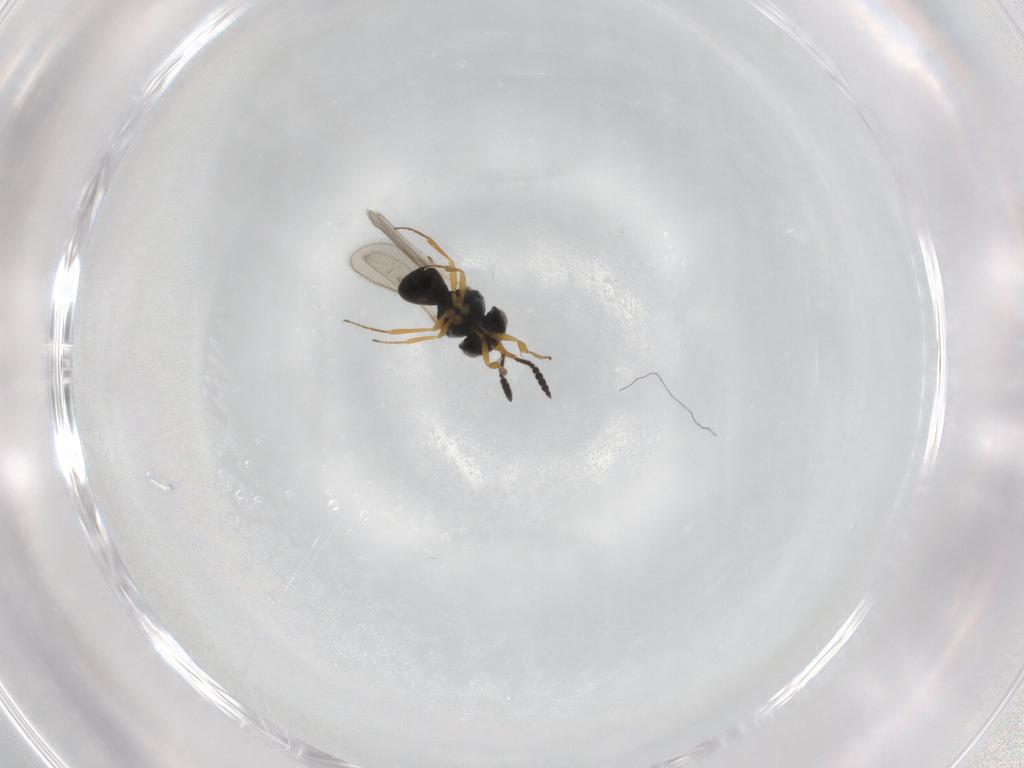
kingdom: Animalia
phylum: Arthropoda
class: Insecta
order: Hymenoptera
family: Scelionidae
